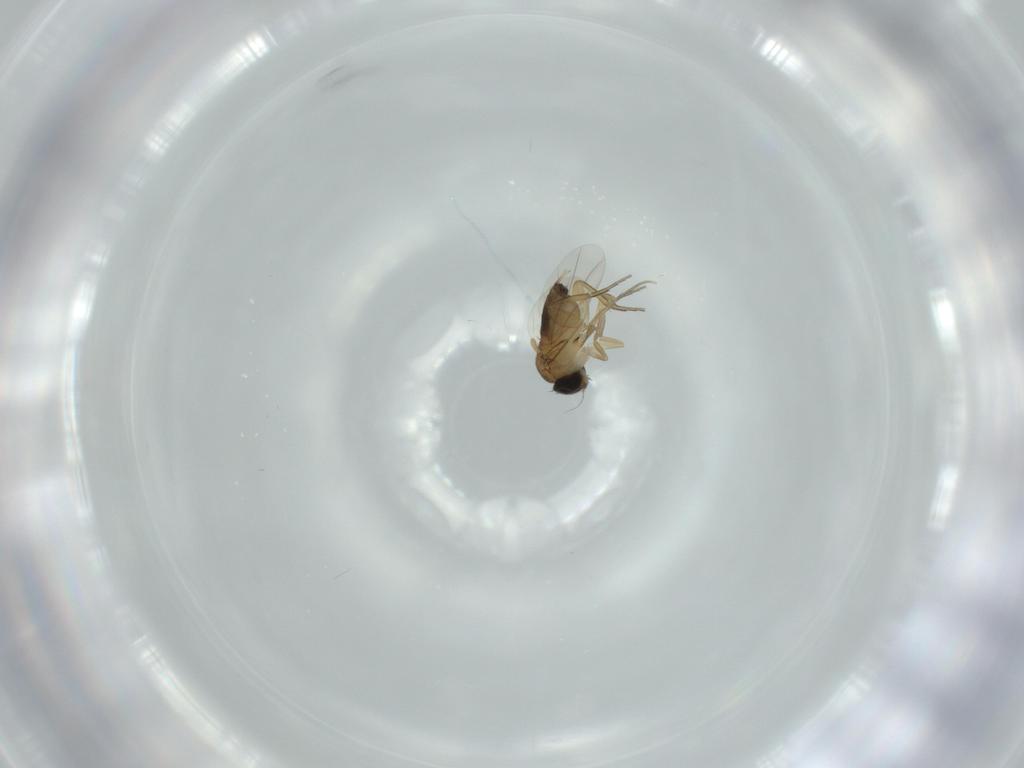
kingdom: Animalia
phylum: Arthropoda
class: Insecta
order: Diptera
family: Phoridae
